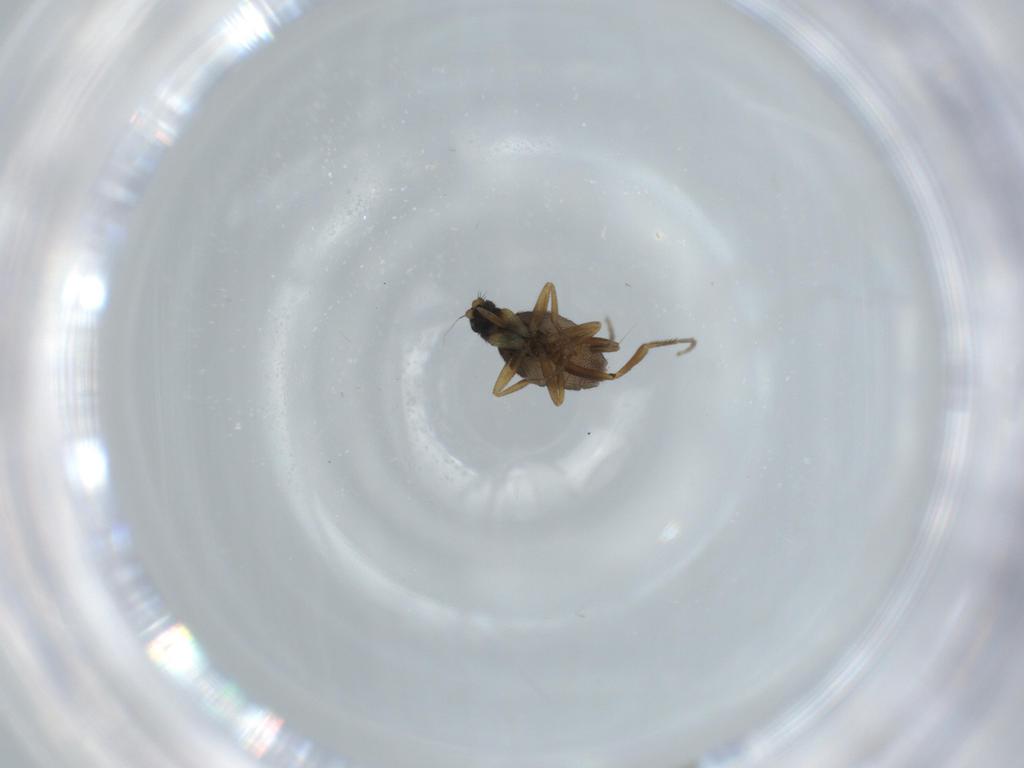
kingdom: Animalia
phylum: Arthropoda
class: Insecta
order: Diptera
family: Phoridae
